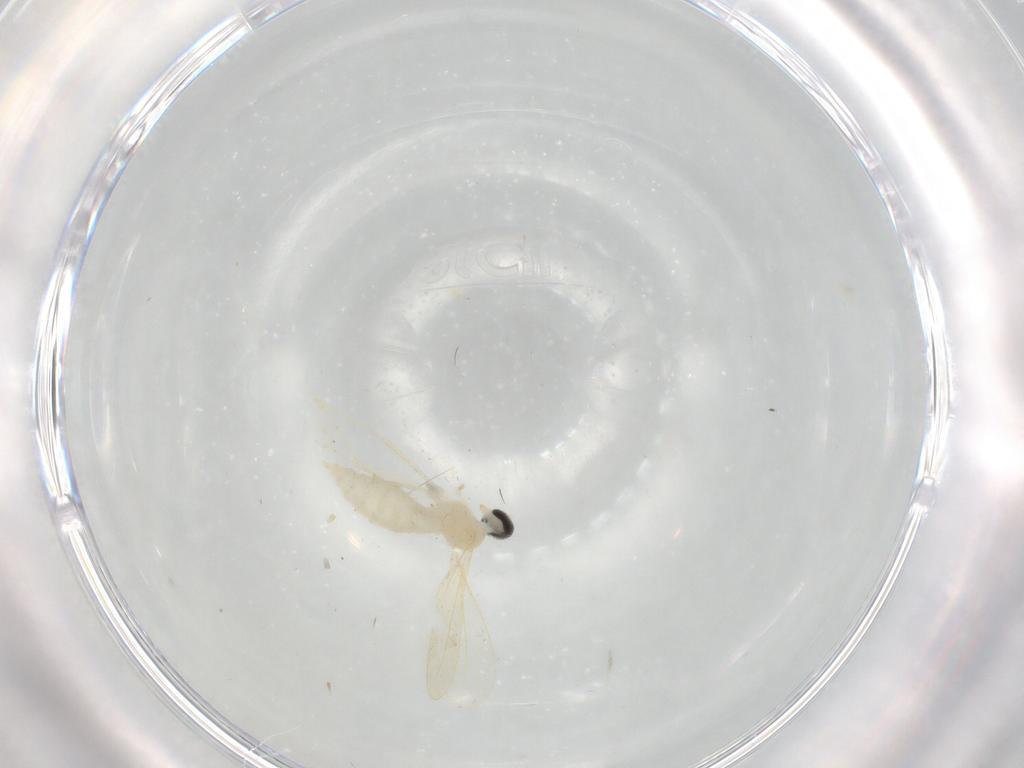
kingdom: Animalia
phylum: Arthropoda
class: Insecta
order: Diptera
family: Cecidomyiidae
